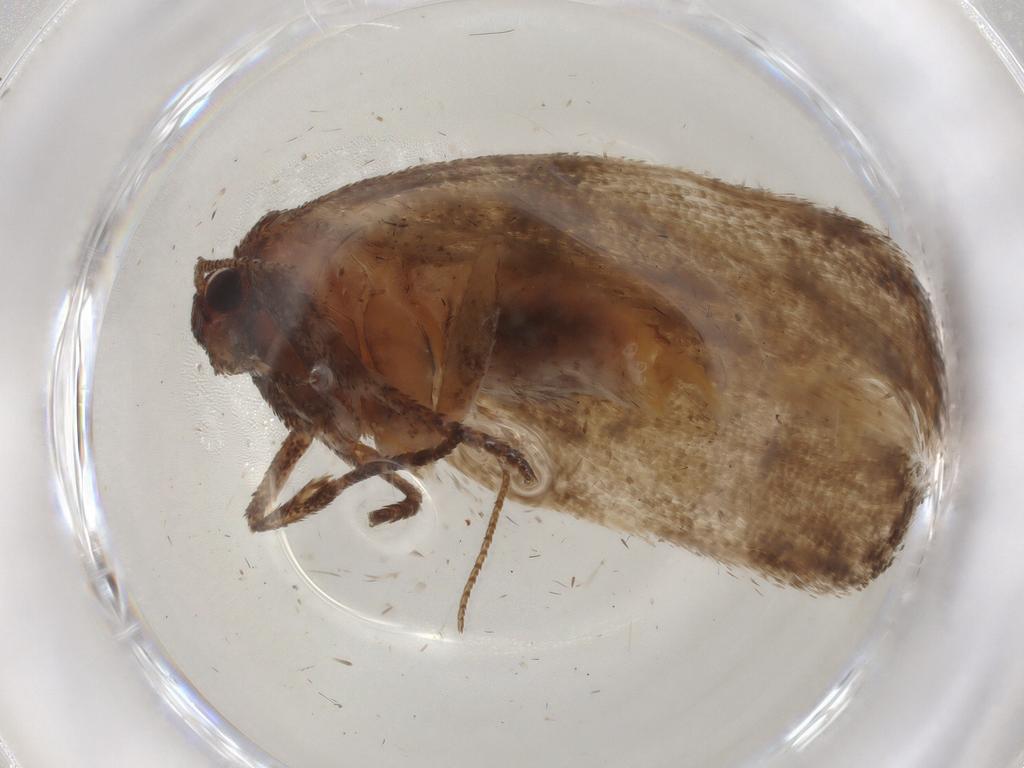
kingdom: Animalia
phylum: Arthropoda
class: Insecta
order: Lepidoptera
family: Cosmopterigidae
